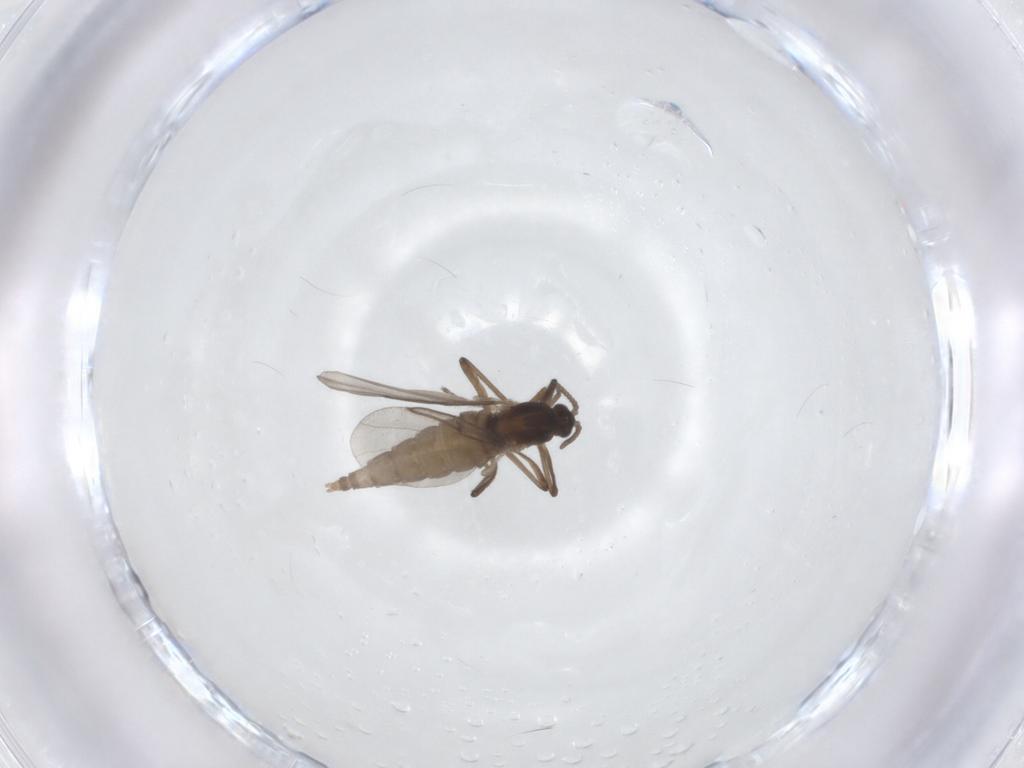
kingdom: Animalia
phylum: Arthropoda
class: Insecta
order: Diptera
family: Cecidomyiidae
